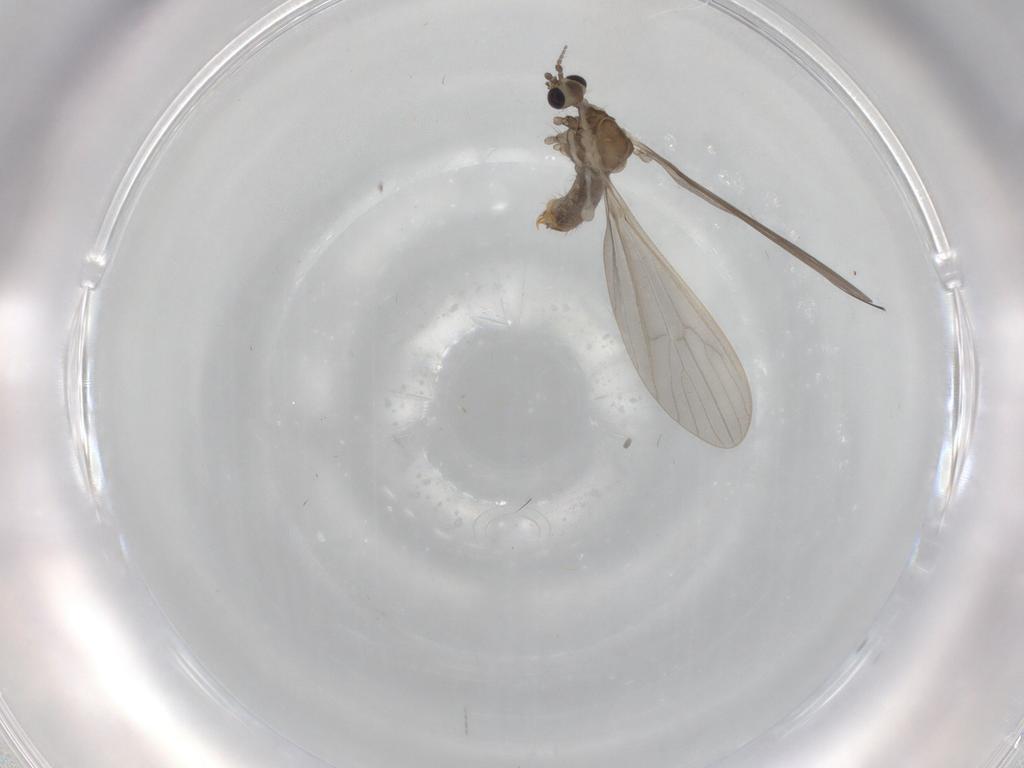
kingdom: Animalia
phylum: Arthropoda
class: Insecta
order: Diptera
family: Limoniidae
